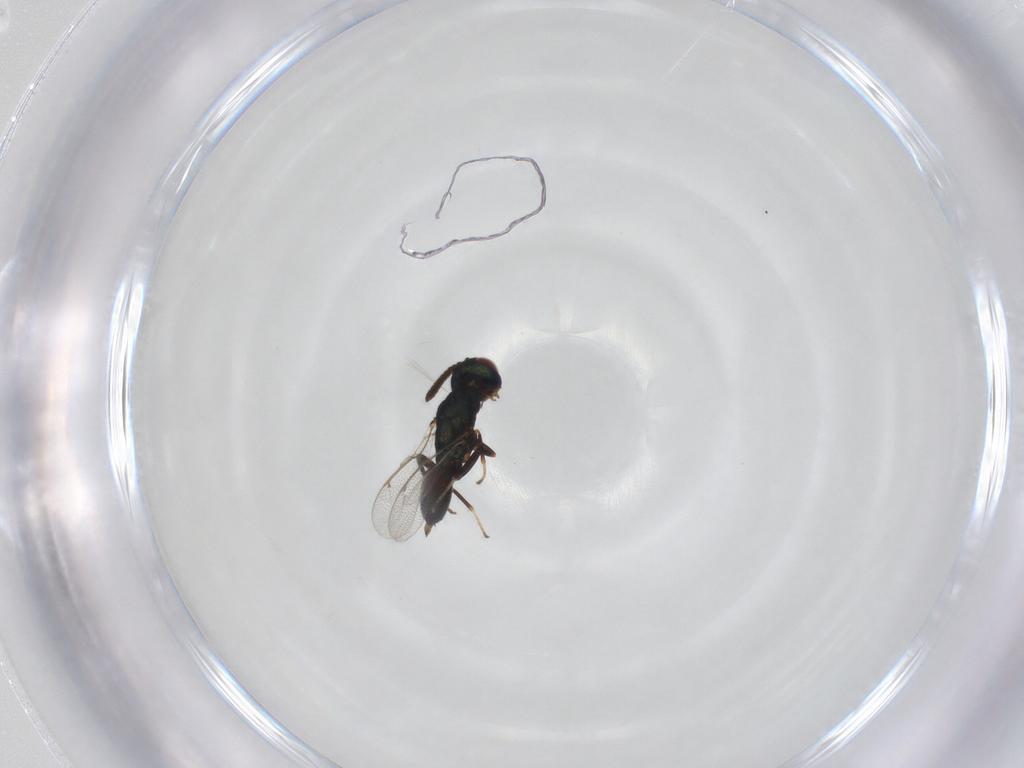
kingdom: Animalia
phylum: Arthropoda
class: Insecta
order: Hymenoptera
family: Torymidae
